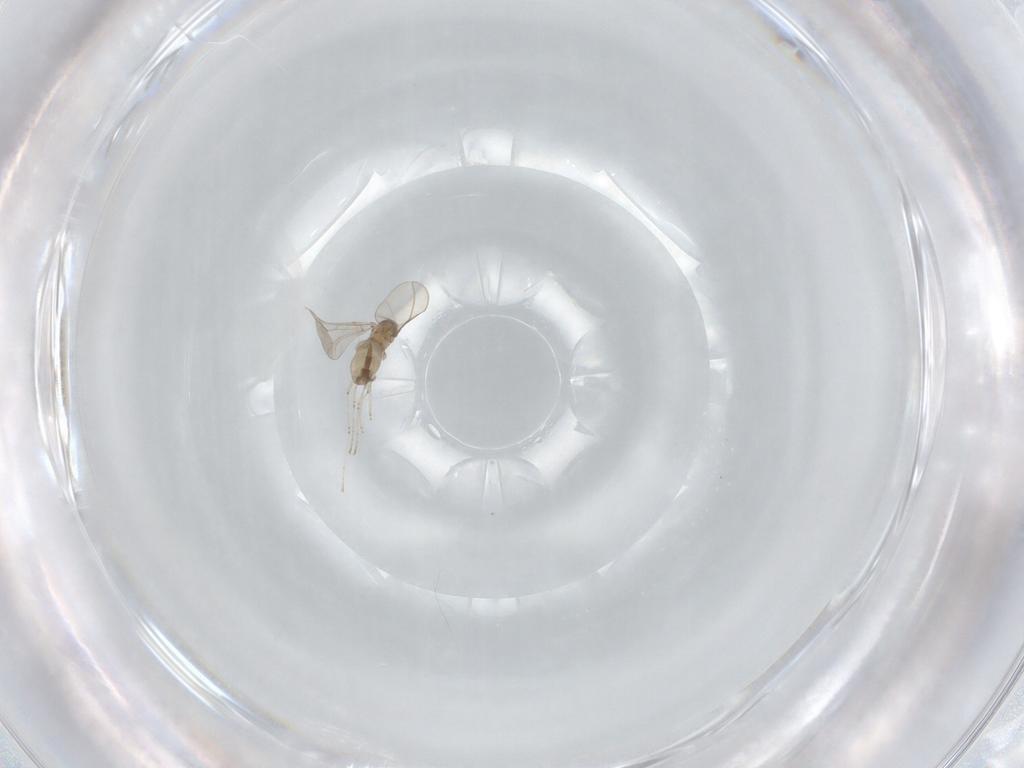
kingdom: Animalia
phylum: Arthropoda
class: Insecta
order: Diptera
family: Cecidomyiidae
